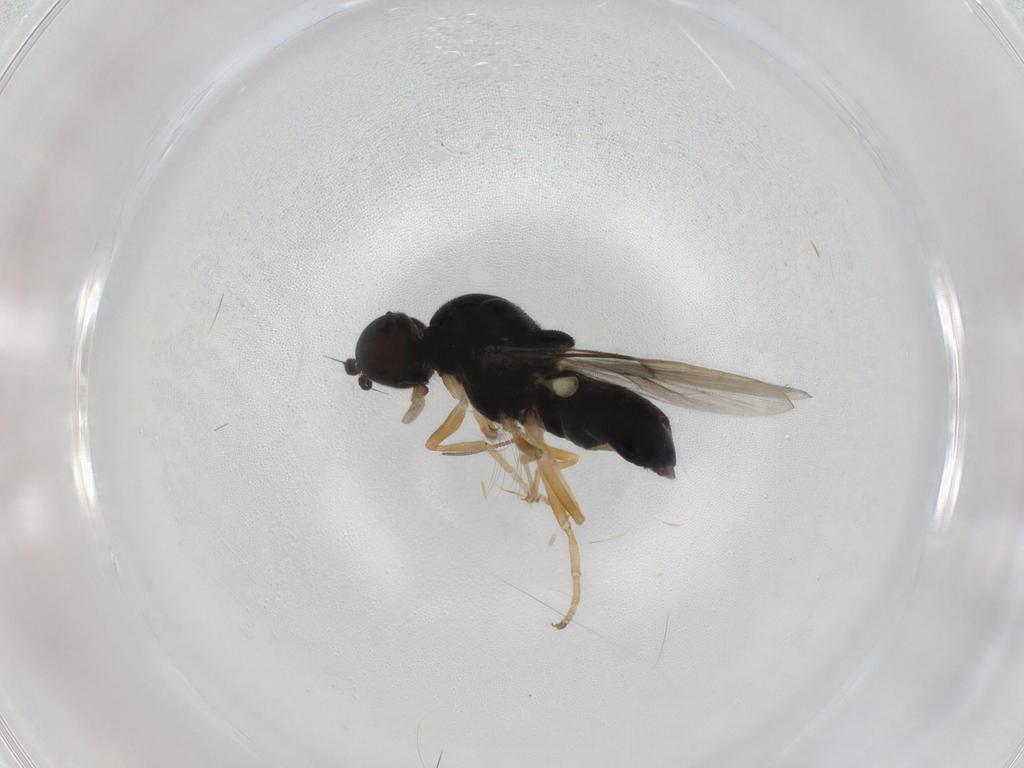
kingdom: Animalia
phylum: Arthropoda
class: Insecta
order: Diptera
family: Stratiomyidae
